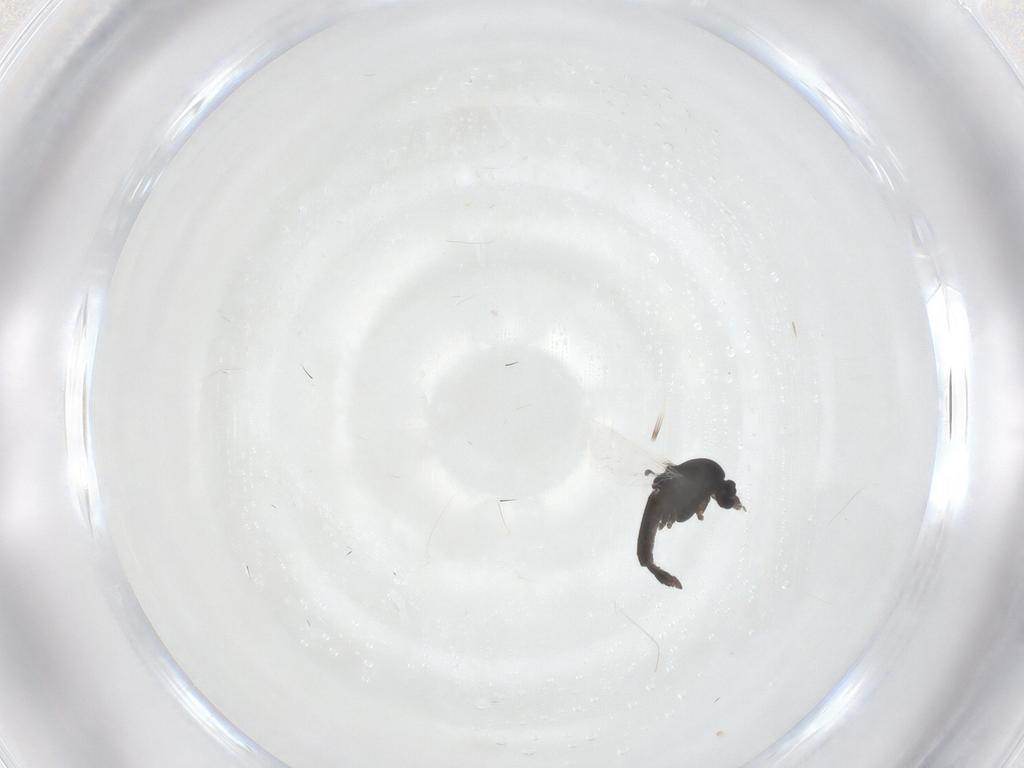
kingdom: Animalia
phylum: Arthropoda
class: Insecta
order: Diptera
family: Chironomidae
